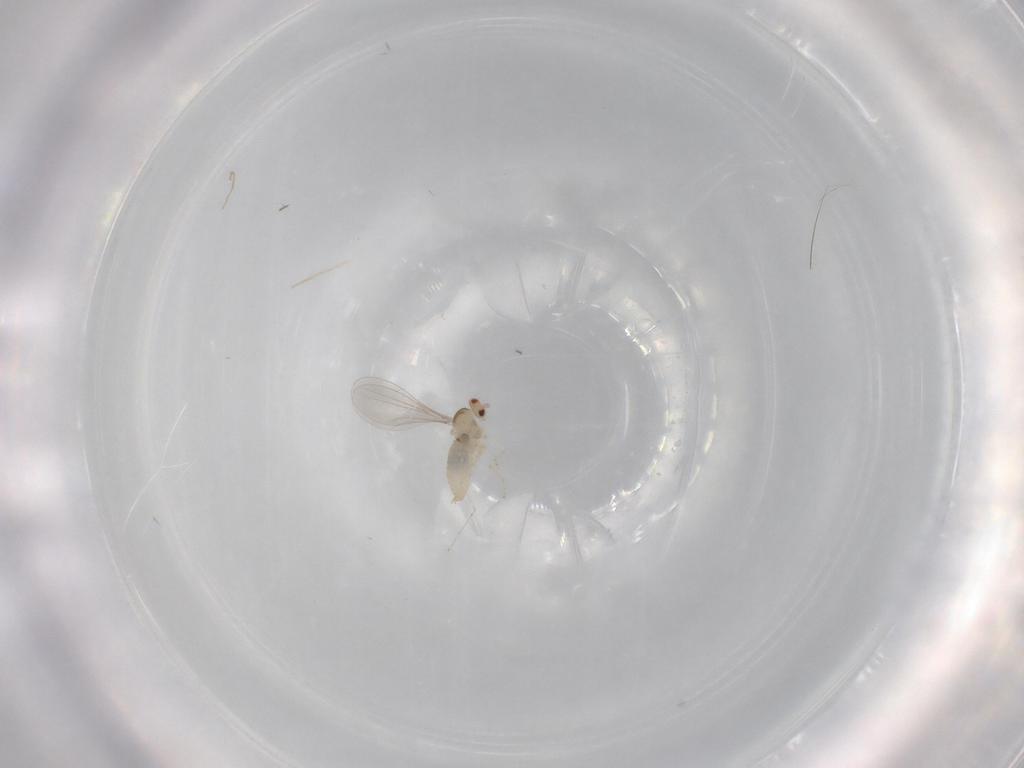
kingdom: Animalia
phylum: Arthropoda
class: Insecta
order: Diptera
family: Cecidomyiidae
